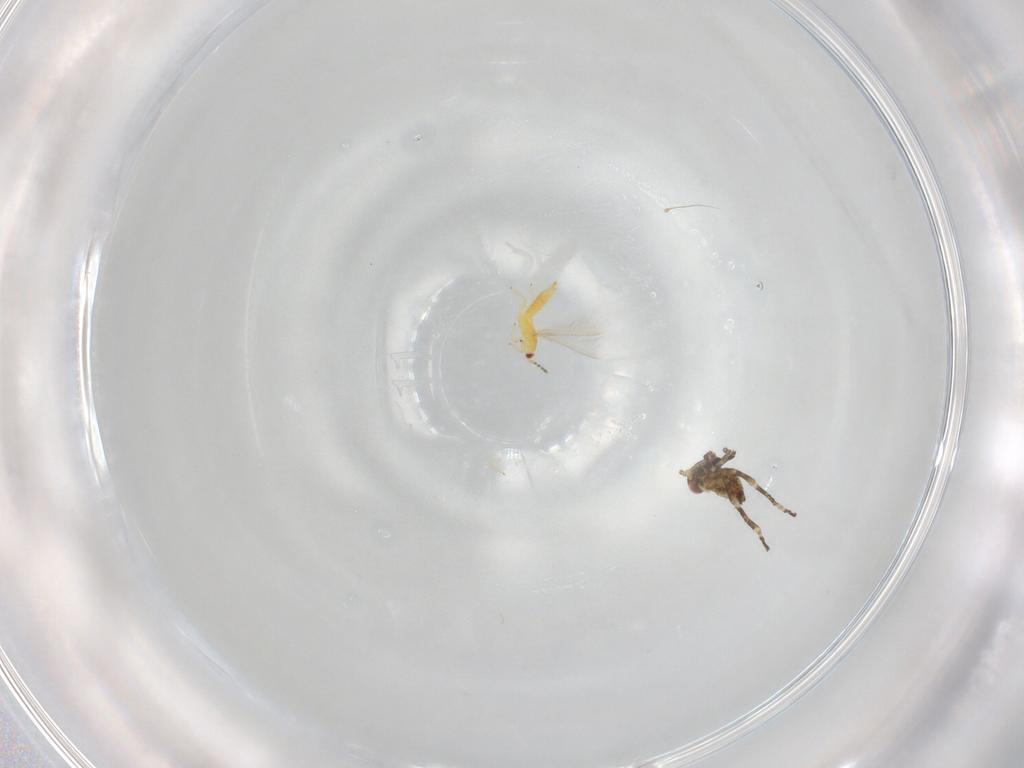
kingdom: Animalia
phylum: Arthropoda
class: Insecta
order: Hemiptera
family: Cicadellidae
